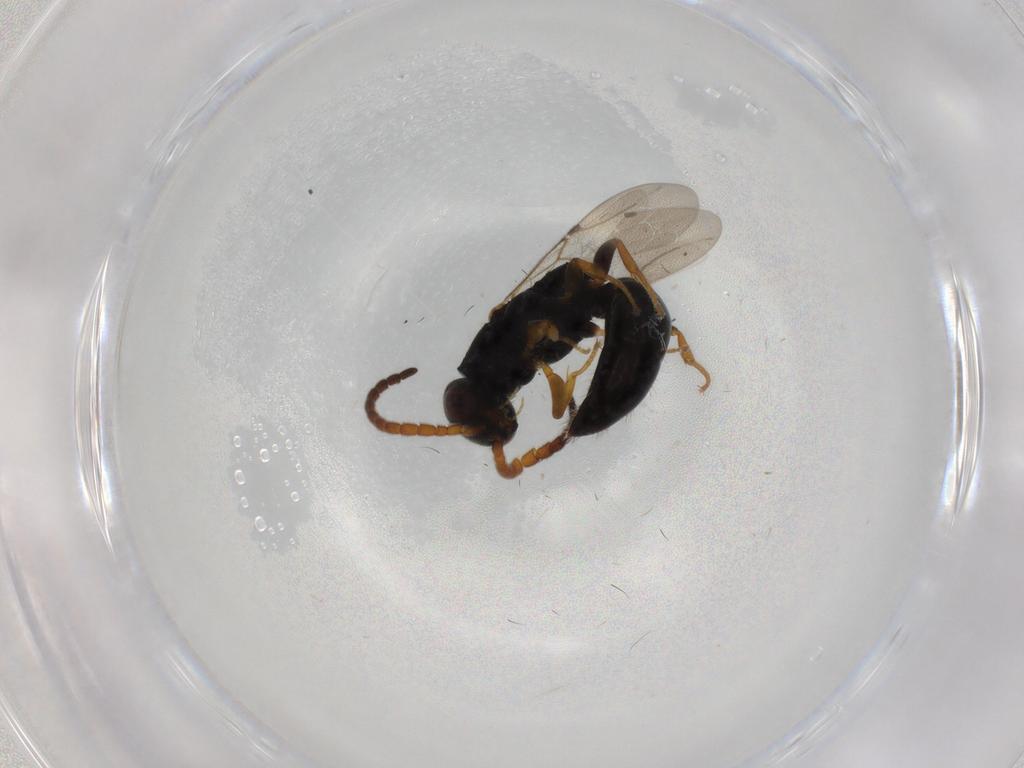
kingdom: Animalia
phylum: Arthropoda
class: Insecta
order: Hymenoptera
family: Bethylidae
